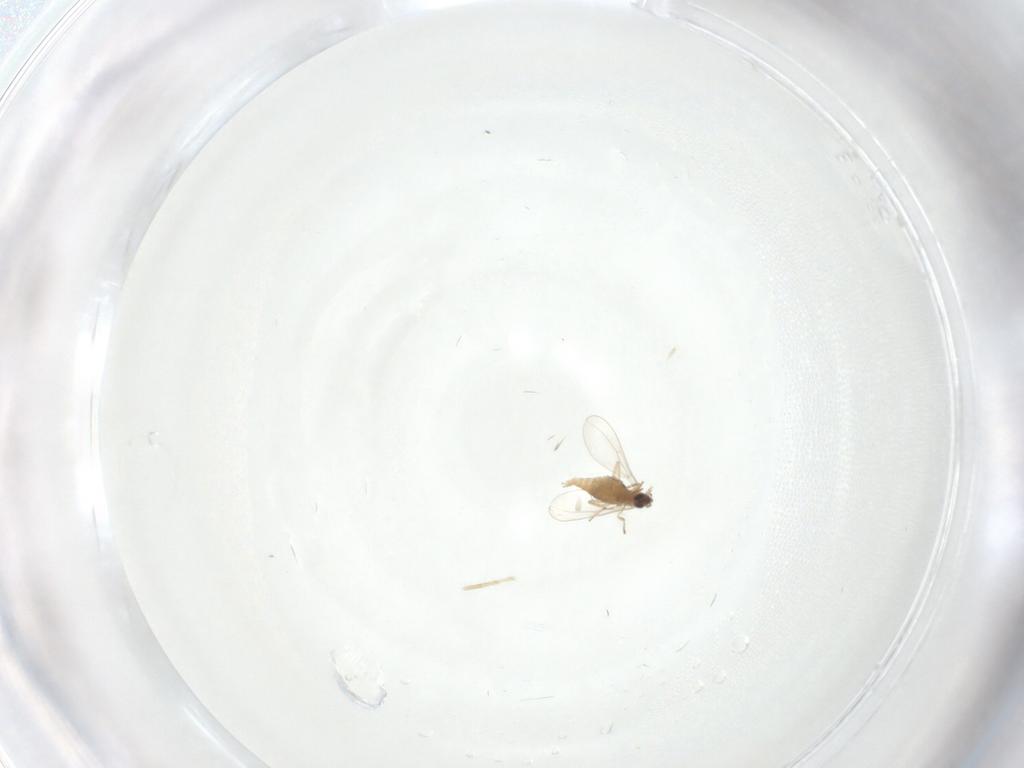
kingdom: Animalia
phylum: Arthropoda
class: Insecta
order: Diptera
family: Cecidomyiidae
